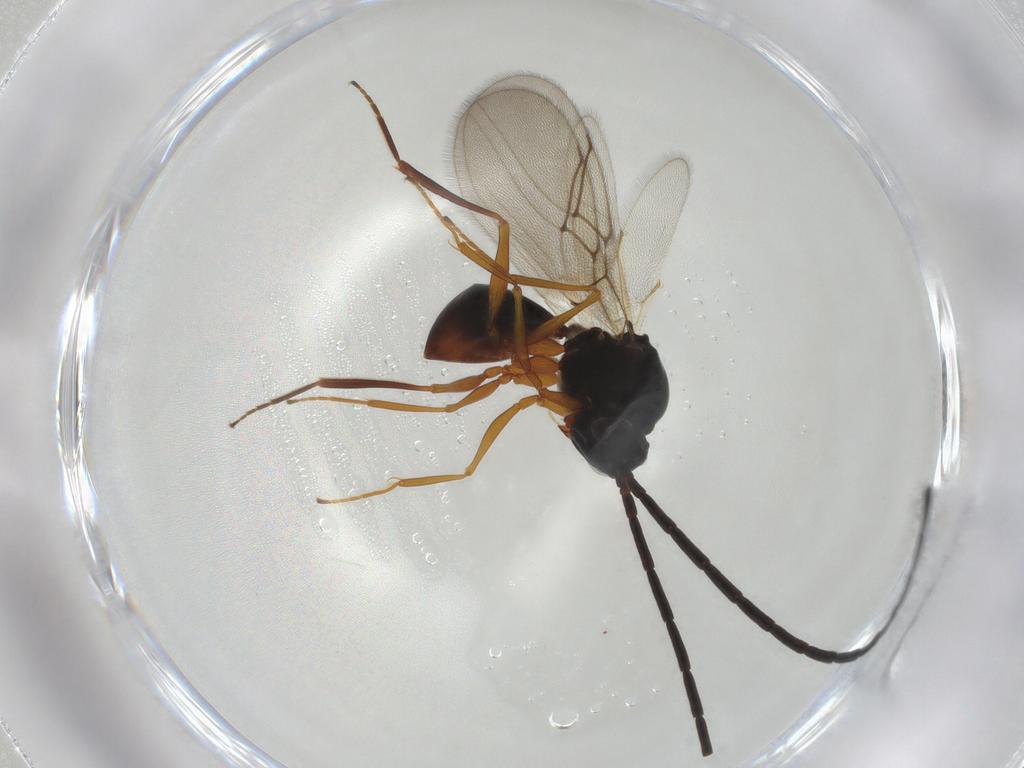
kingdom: Animalia
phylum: Arthropoda
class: Insecta
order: Hymenoptera
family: Figitidae
